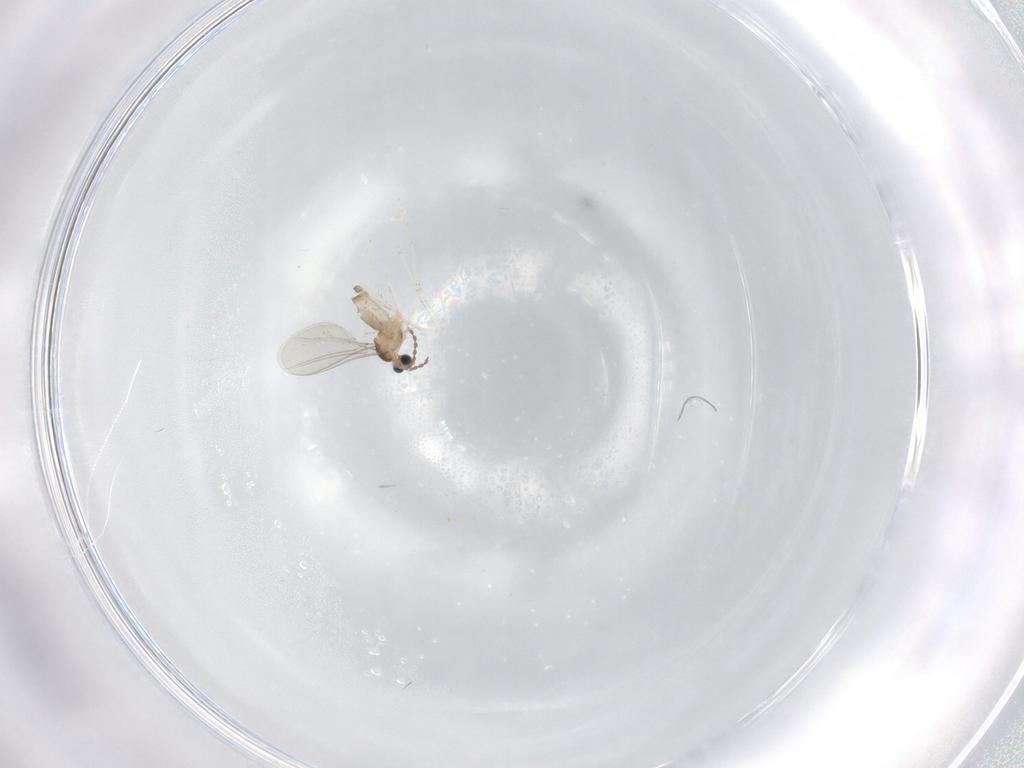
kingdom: Animalia
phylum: Arthropoda
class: Insecta
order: Diptera
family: Cecidomyiidae
